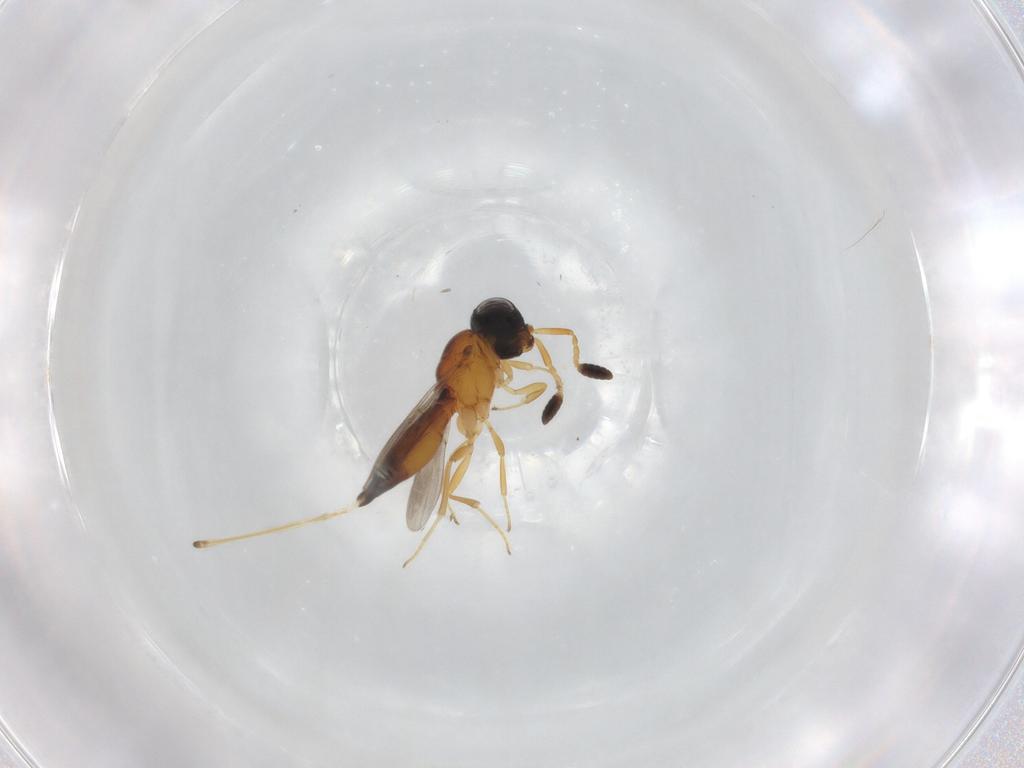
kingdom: Animalia
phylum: Arthropoda
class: Insecta
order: Hymenoptera
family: Scelionidae
